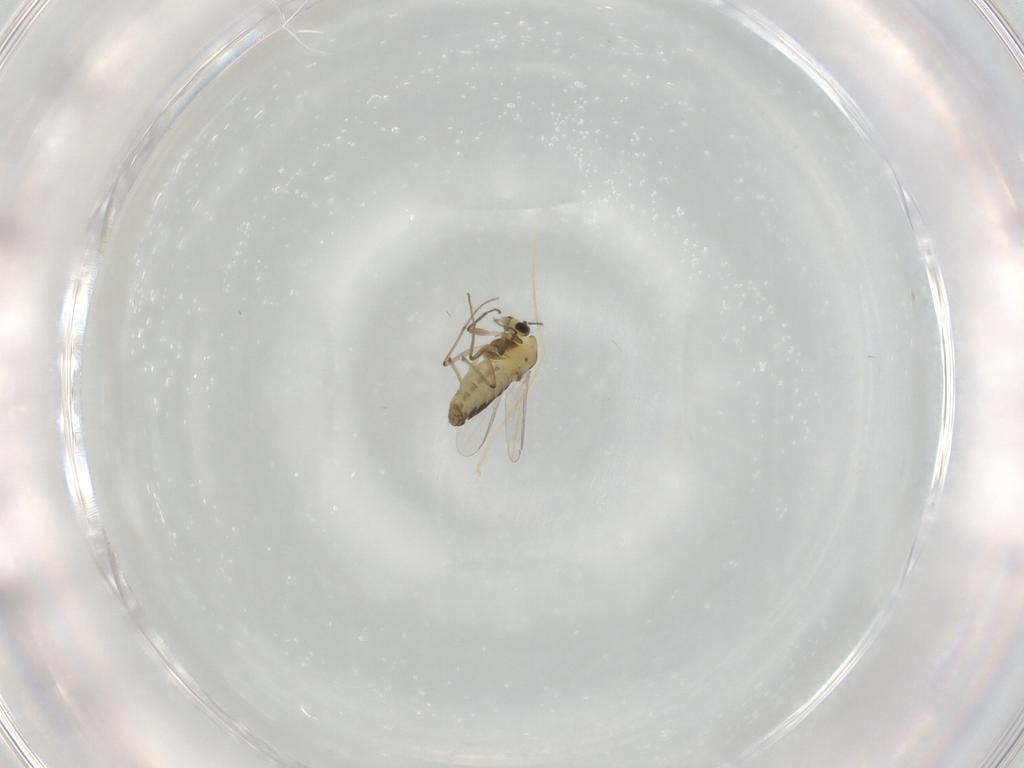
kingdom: Animalia
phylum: Arthropoda
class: Insecta
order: Diptera
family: Chironomidae
